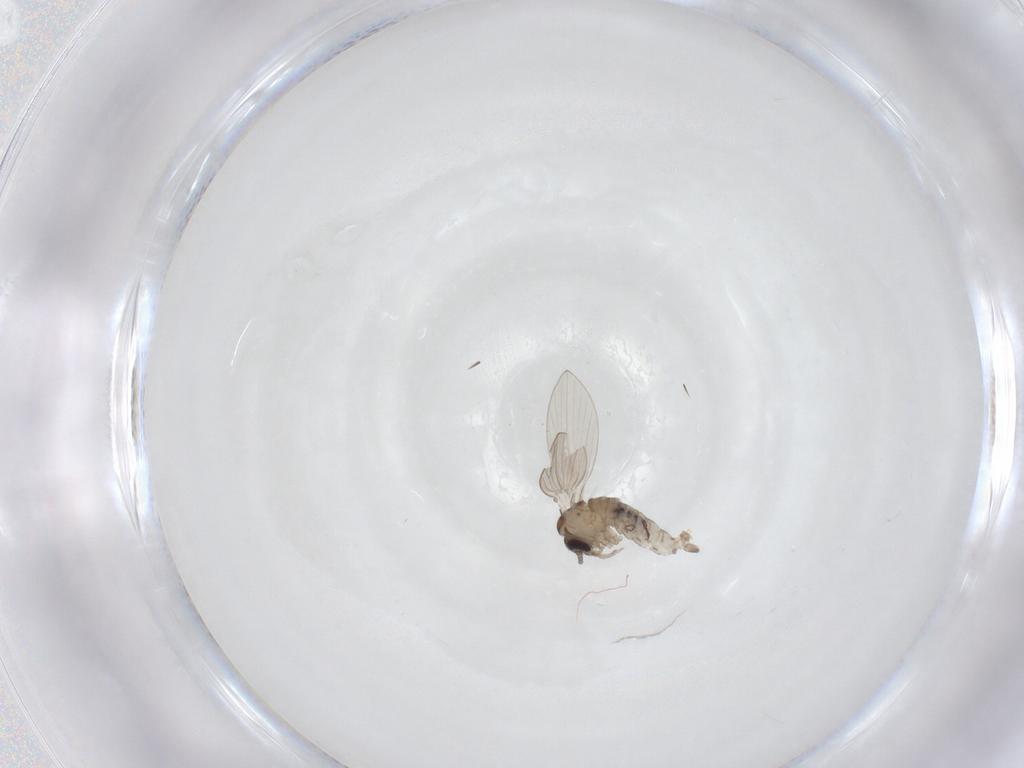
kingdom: Animalia
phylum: Arthropoda
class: Insecta
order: Diptera
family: Psychodidae
